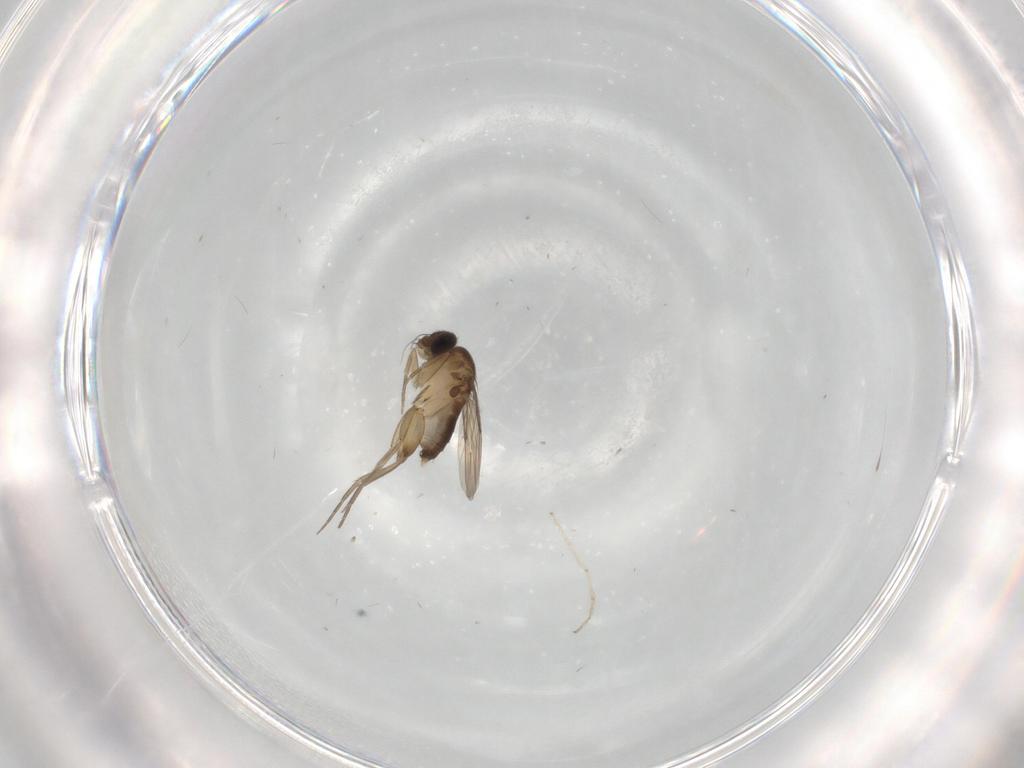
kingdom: Animalia
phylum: Arthropoda
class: Insecta
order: Diptera
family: Phoridae
